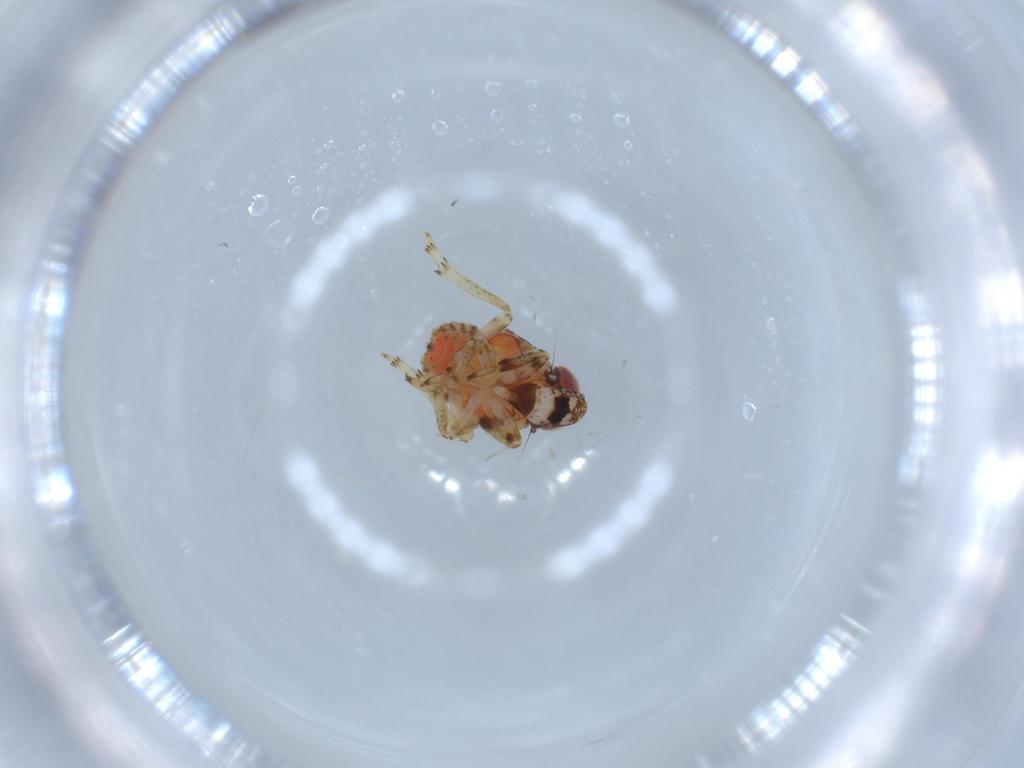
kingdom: Animalia
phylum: Arthropoda
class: Insecta
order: Hemiptera
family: Issidae
